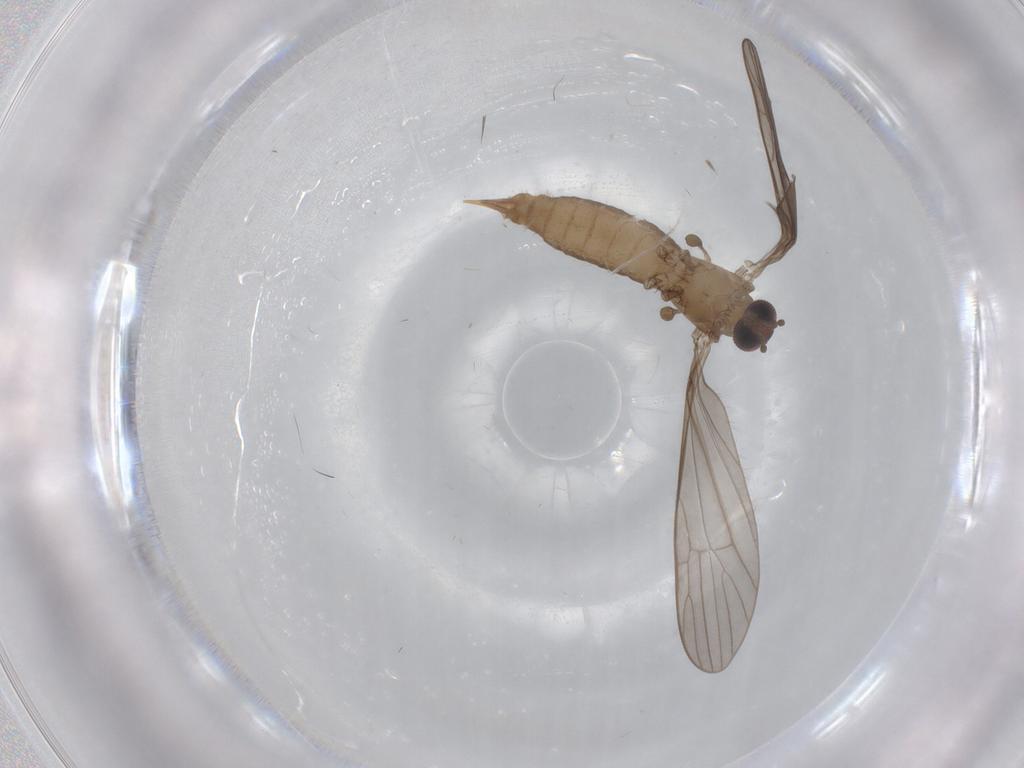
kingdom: Animalia
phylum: Arthropoda
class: Insecta
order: Diptera
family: Limoniidae
